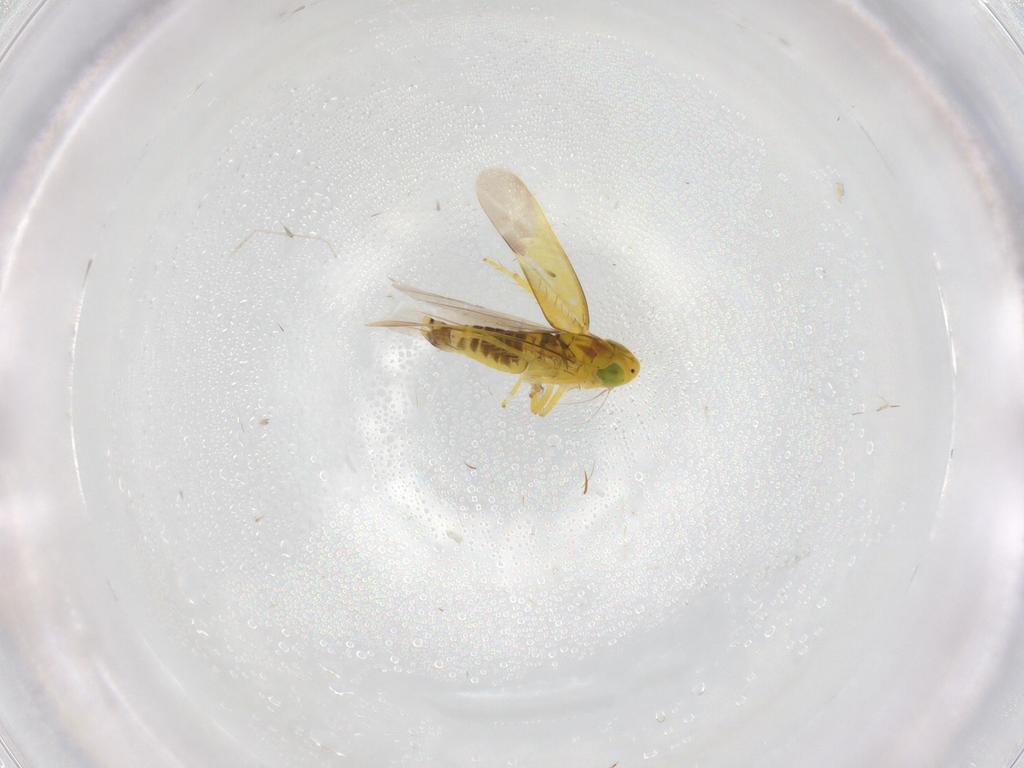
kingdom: Animalia
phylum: Arthropoda
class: Insecta
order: Hemiptera
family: Cicadellidae
